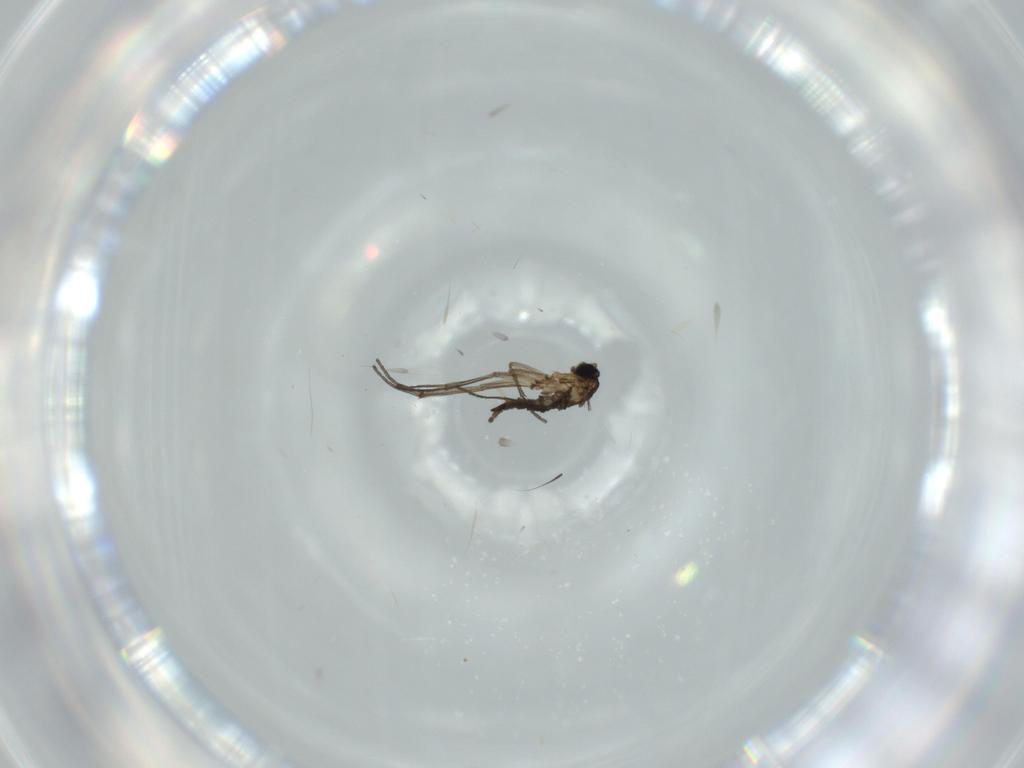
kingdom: Animalia
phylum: Arthropoda
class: Insecta
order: Diptera
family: Sciaridae
